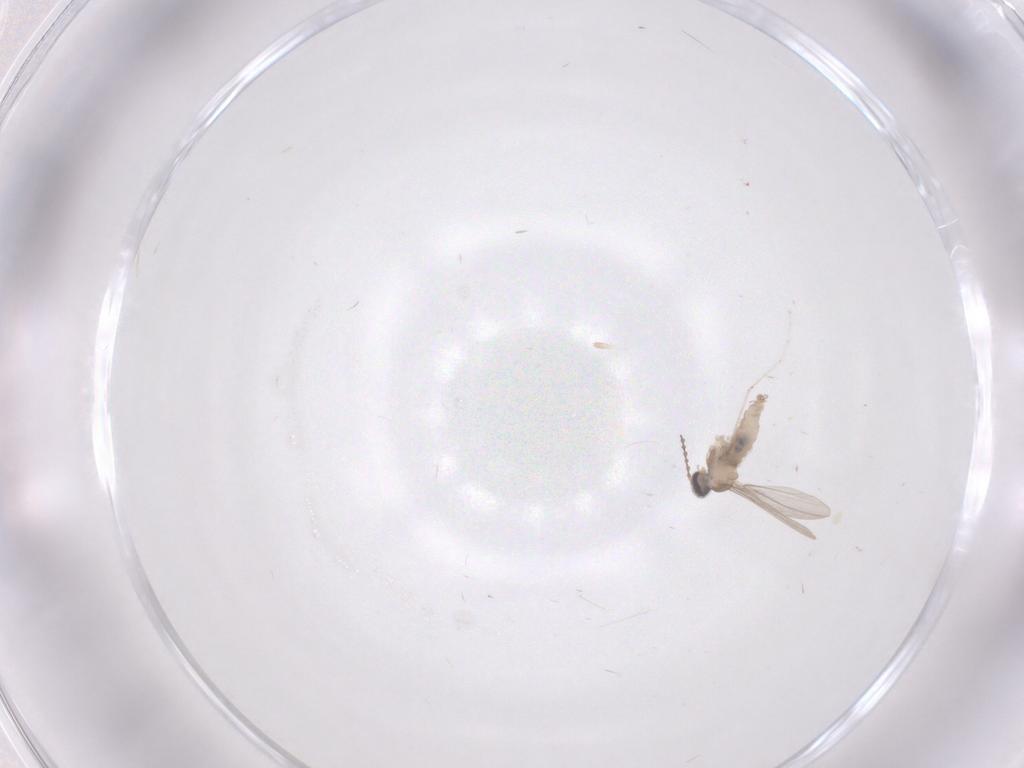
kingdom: Animalia
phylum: Arthropoda
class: Insecta
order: Diptera
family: Cecidomyiidae
